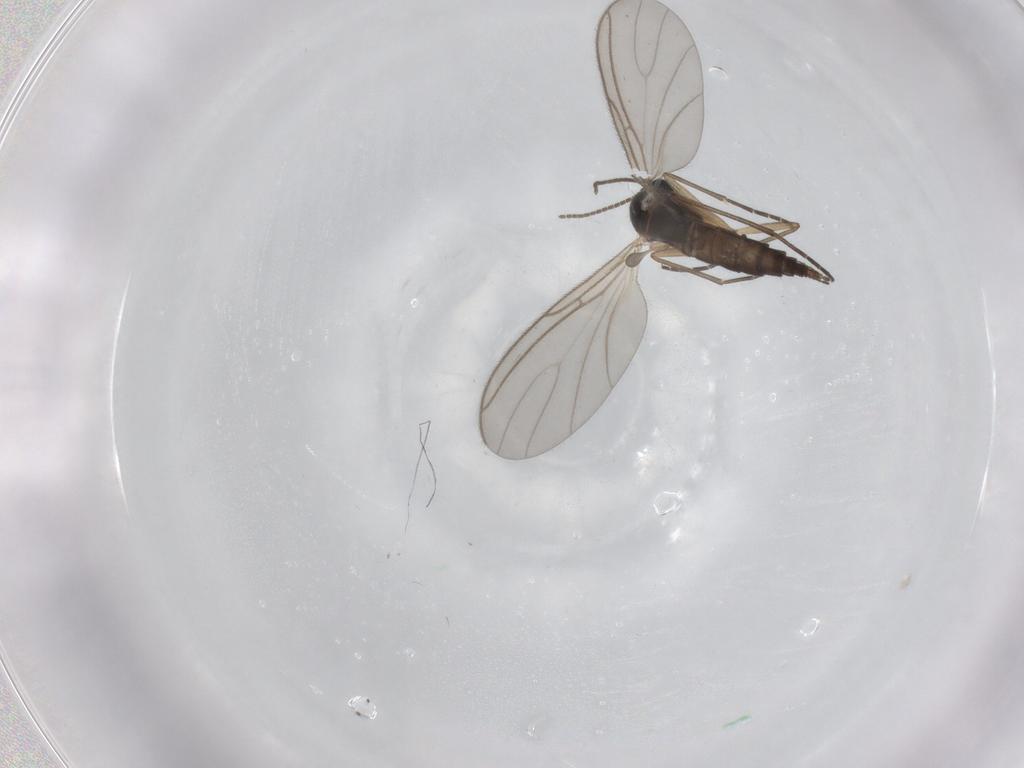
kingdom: Animalia
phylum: Arthropoda
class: Insecta
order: Diptera
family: Sciaridae
